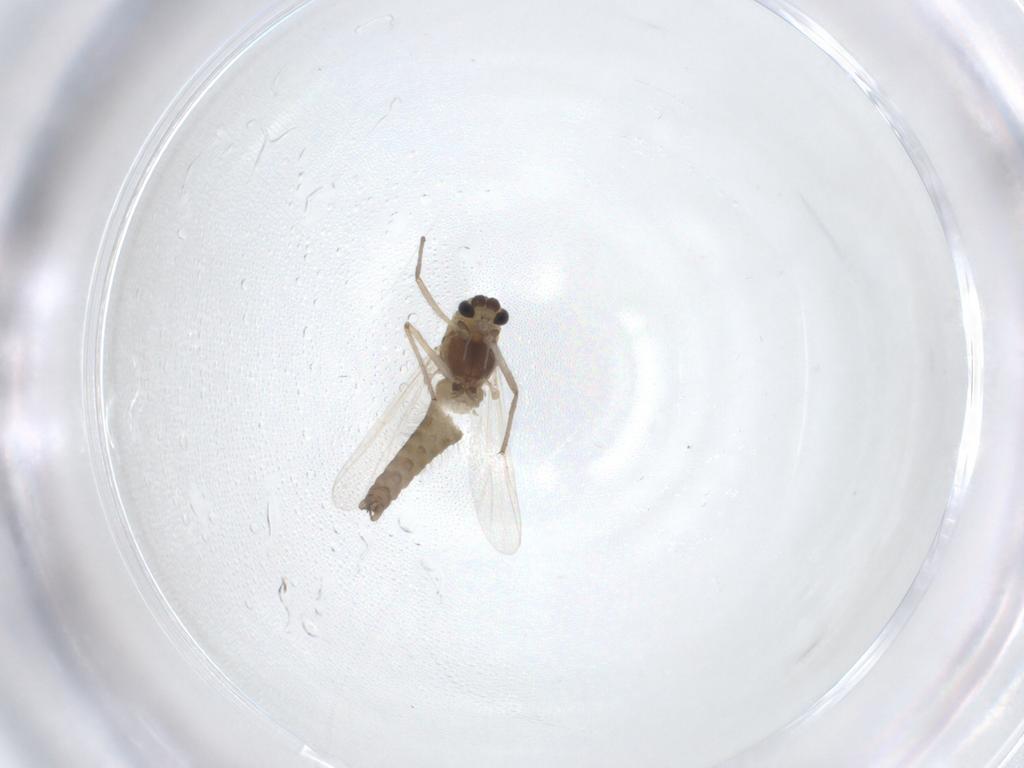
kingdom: Animalia
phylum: Arthropoda
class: Insecta
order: Diptera
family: Chironomidae
